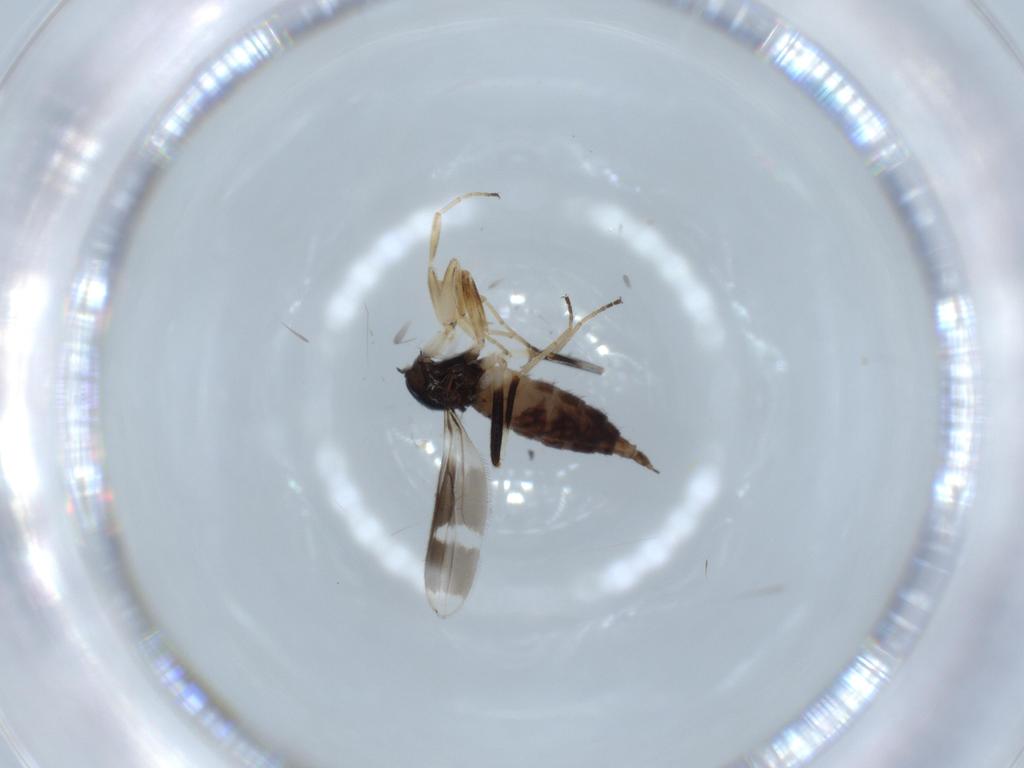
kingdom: Animalia
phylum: Arthropoda
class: Insecta
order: Diptera
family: Hybotidae
